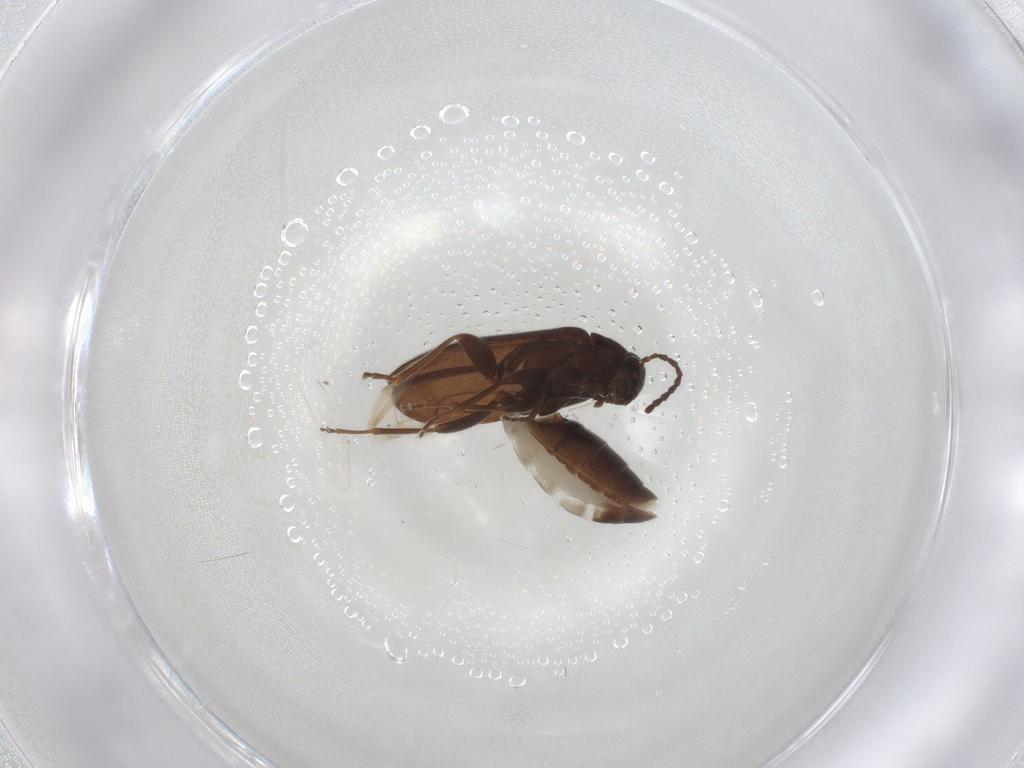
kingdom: Animalia
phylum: Arthropoda
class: Insecta
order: Coleoptera
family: Scraptiidae
